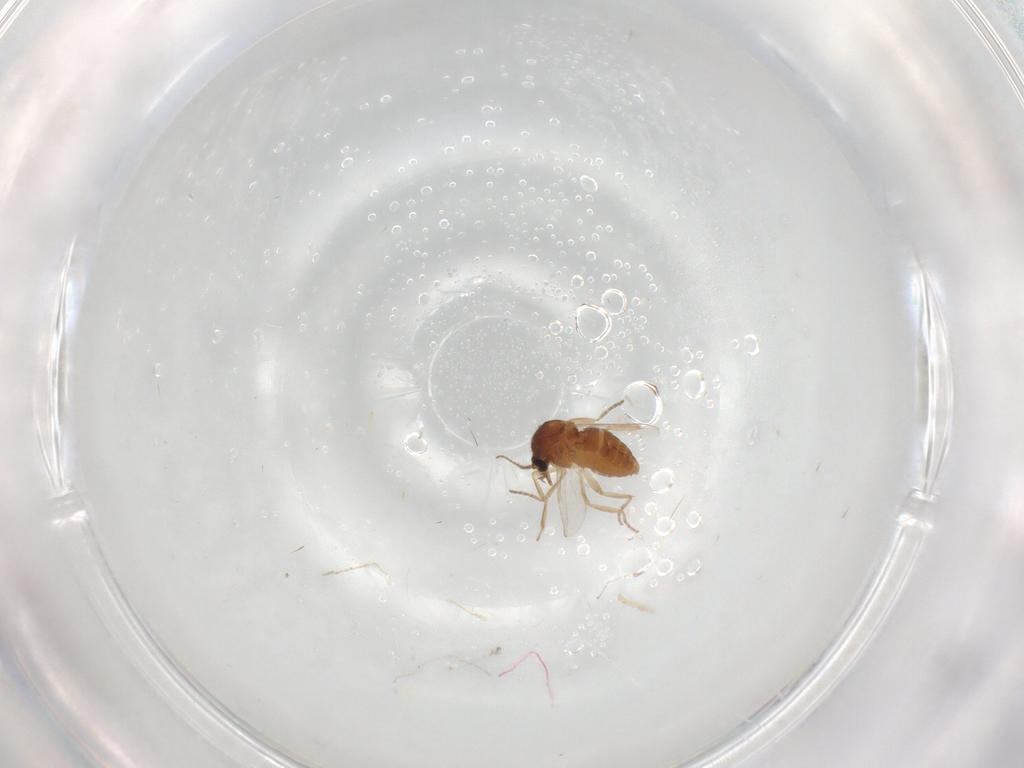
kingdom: Animalia
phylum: Arthropoda
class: Insecta
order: Diptera
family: Ceratopogonidae
